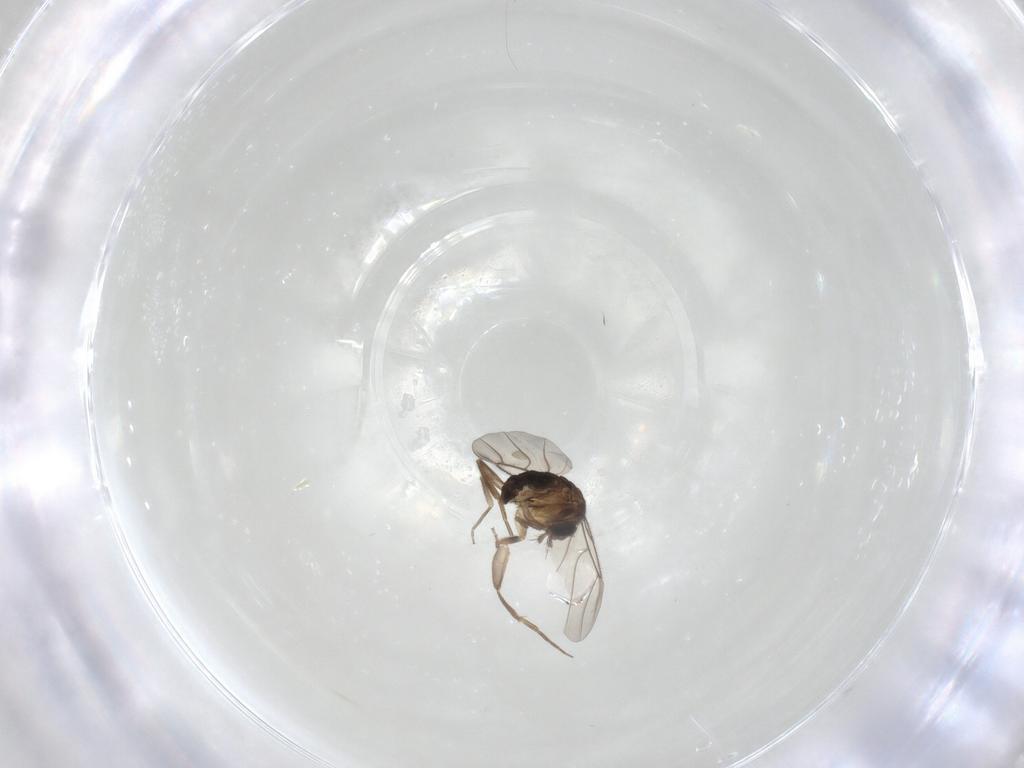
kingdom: Animalia
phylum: Arthropoda
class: Insecta
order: Diptera
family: Phoridae
